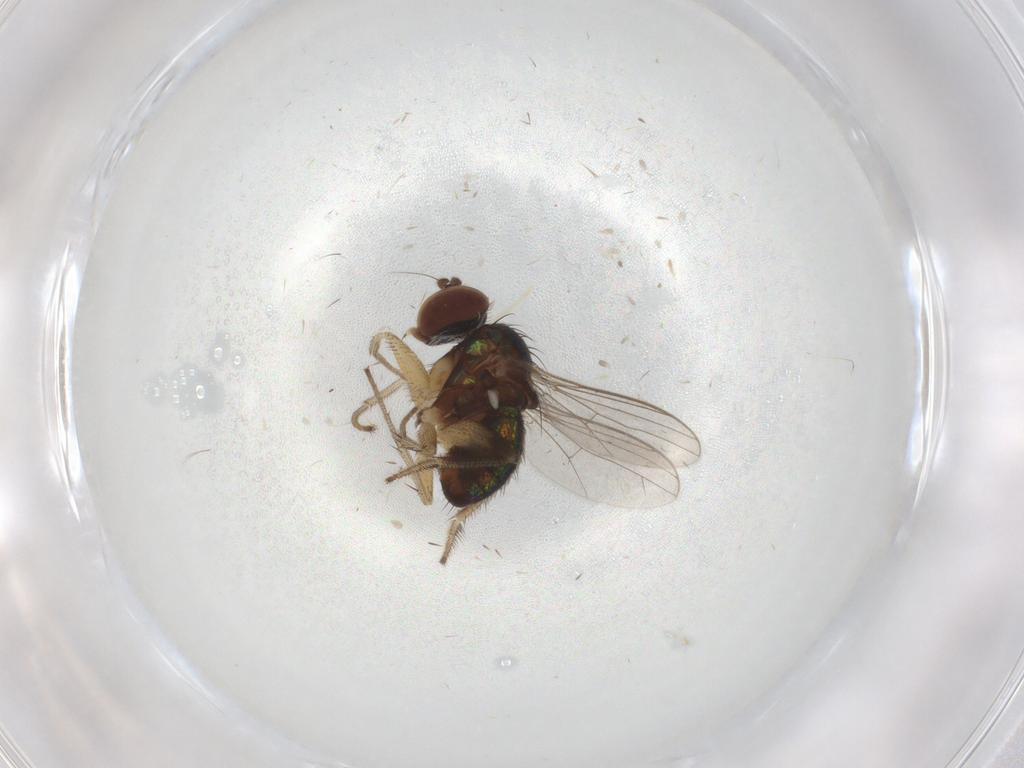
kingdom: Animalia
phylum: Arthropoda
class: Insecta
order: Diptera
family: Dolichopodidae
